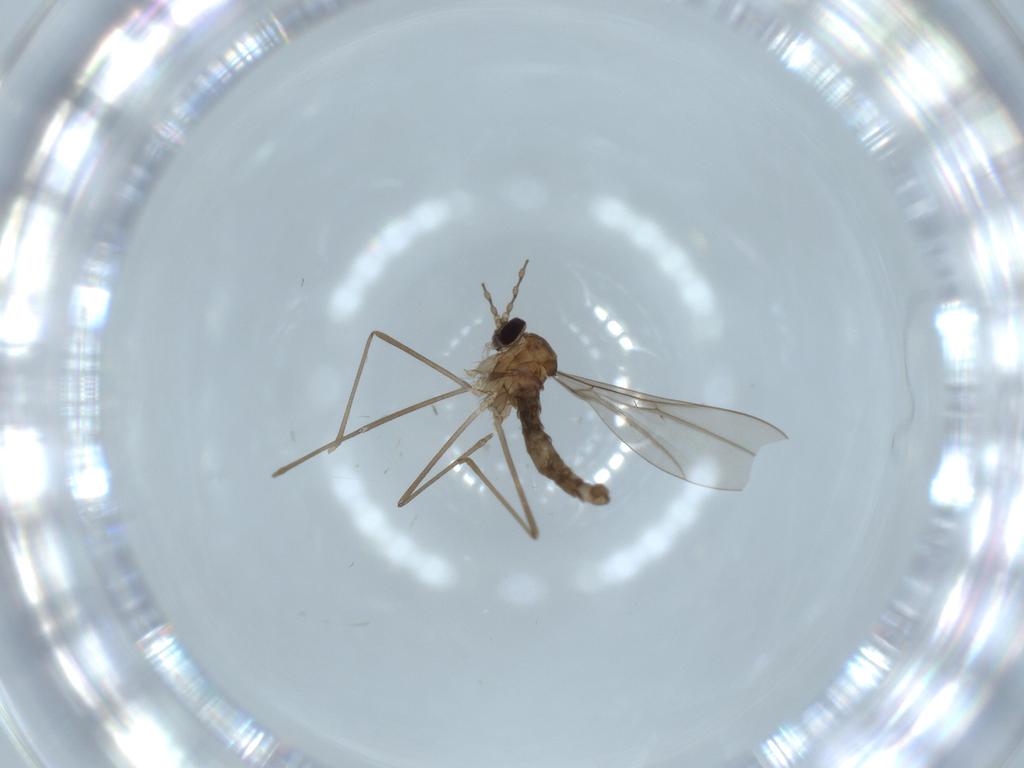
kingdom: Animalia
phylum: Arthropoda
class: Insecta
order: Diptera
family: Cecidomyiidae
